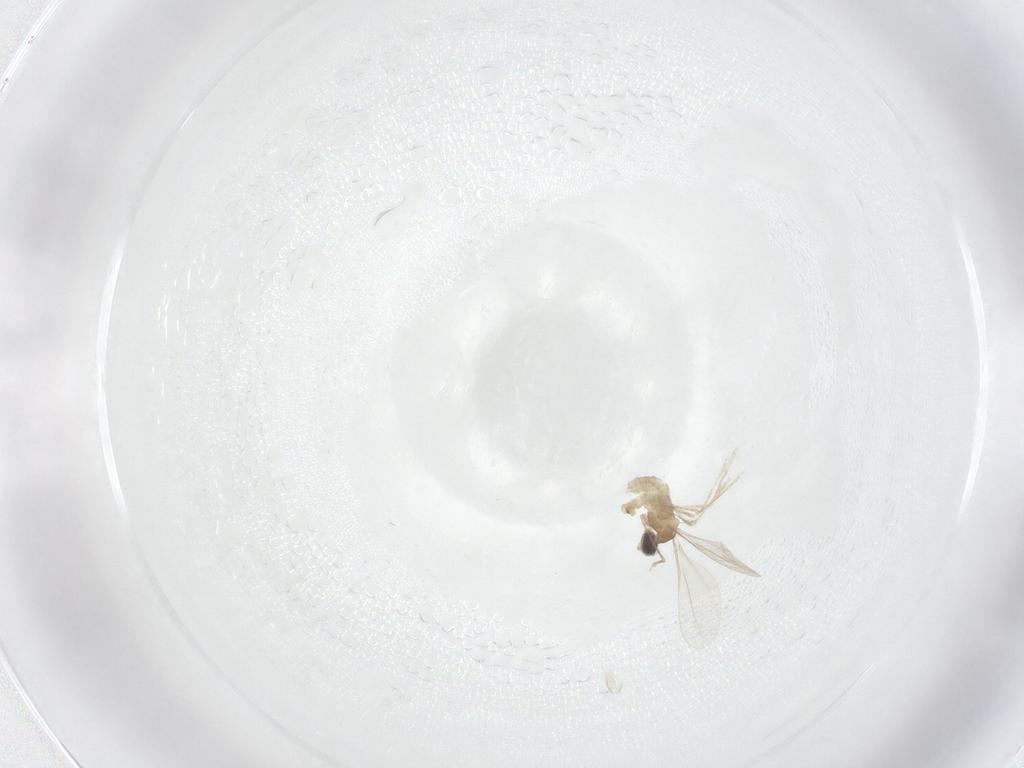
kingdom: Animalia
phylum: Arthropoda
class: Insecta
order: Diptera
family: Cecidomyiidae
